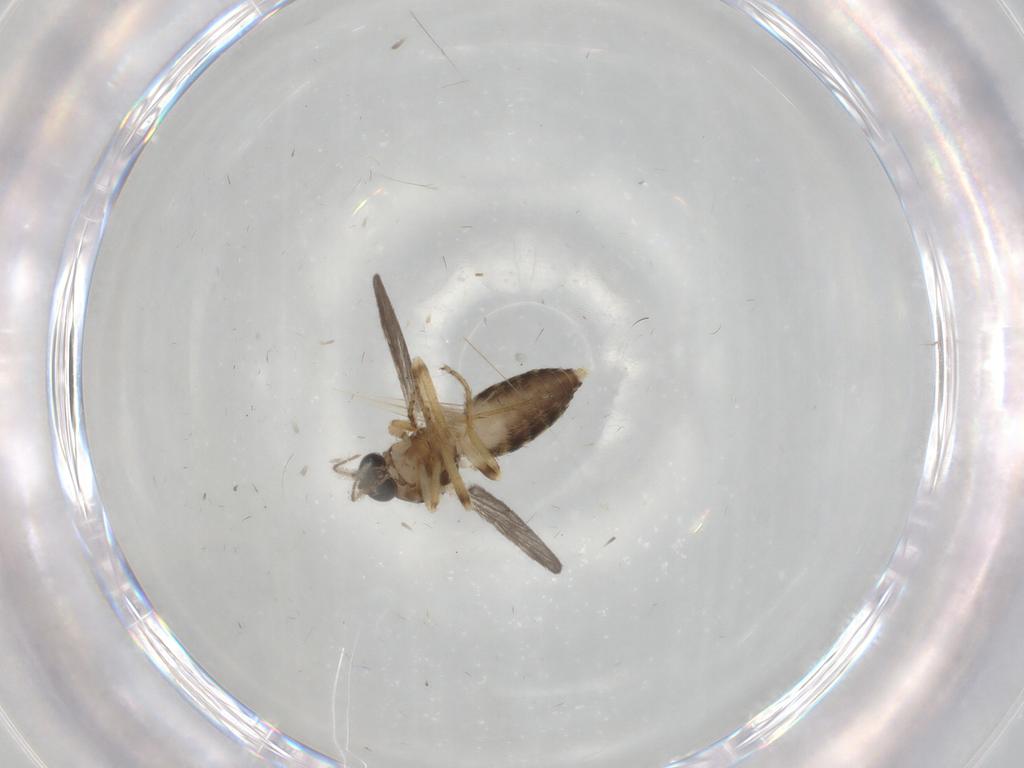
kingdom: Animalia
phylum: Arthropoda
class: Insecta
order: Diptera
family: Ceratopogonidae
